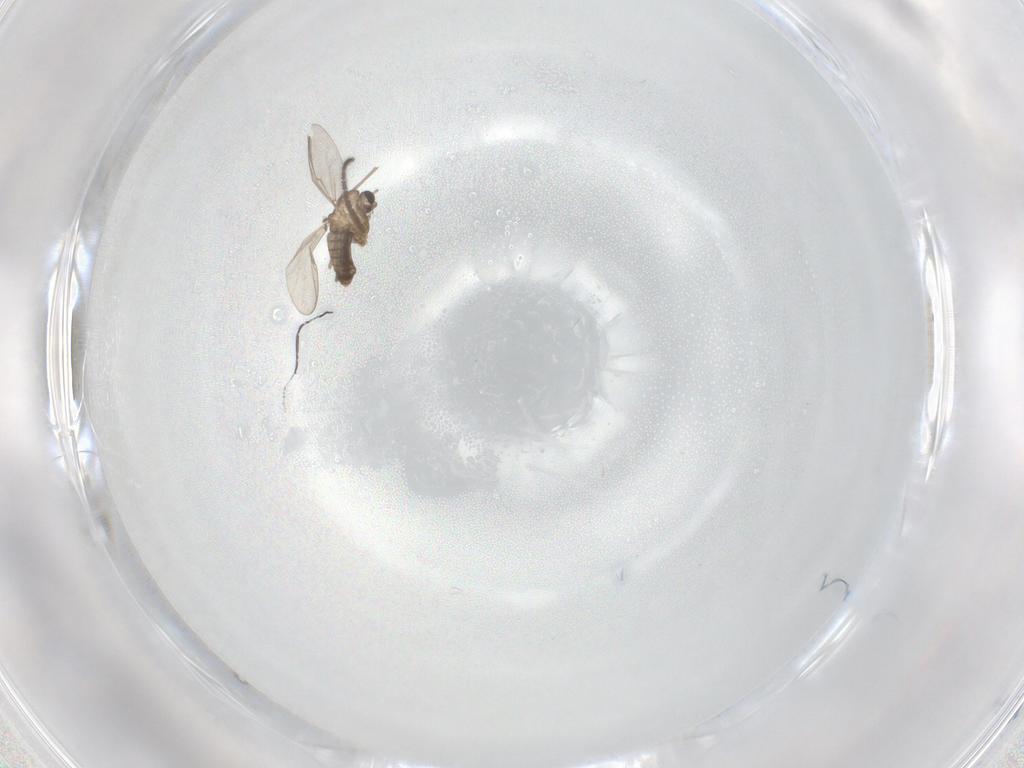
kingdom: Animalia
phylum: Arthropoda
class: Insecta
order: Diptera
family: Sciaridae
